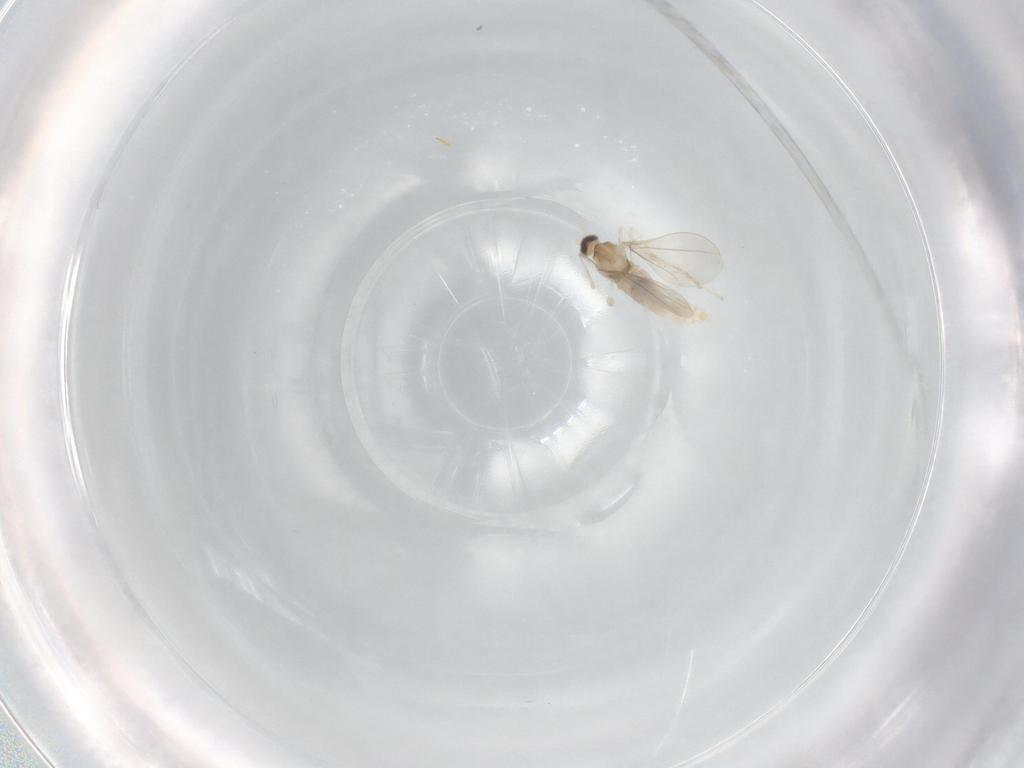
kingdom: Animalia
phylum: Arthropoda
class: Insecta
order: Diptera
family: Cecidomyiidae
